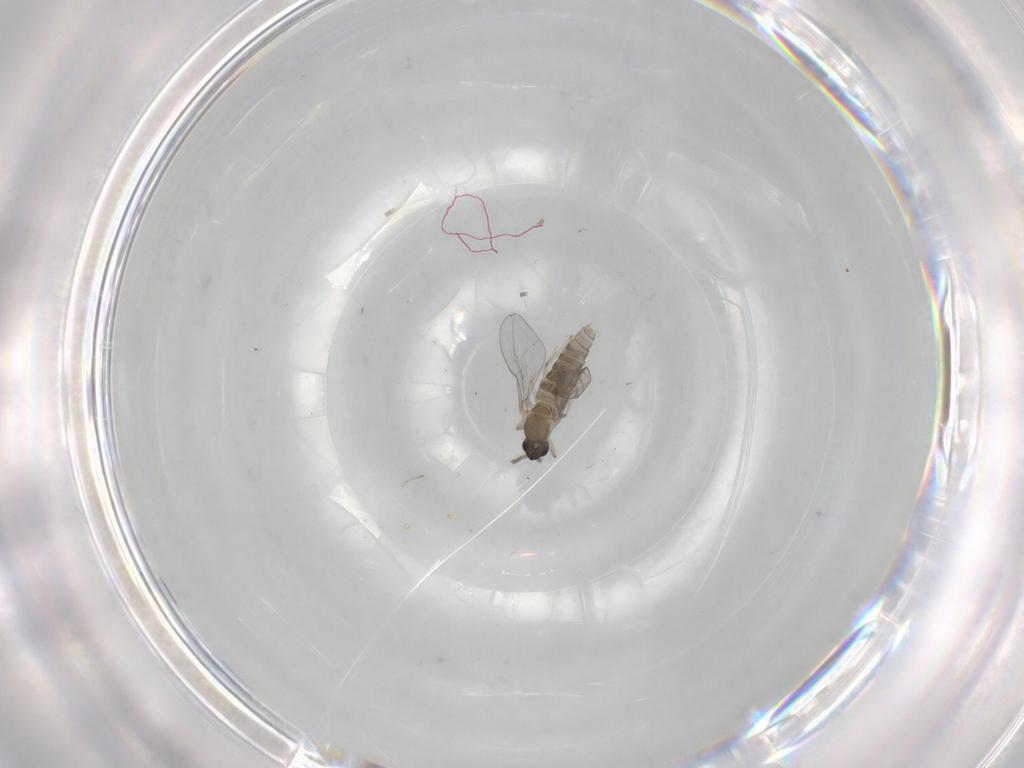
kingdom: Animalia
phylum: Arthropoda
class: Insecta
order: Diptera
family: Cecidomyiidae
